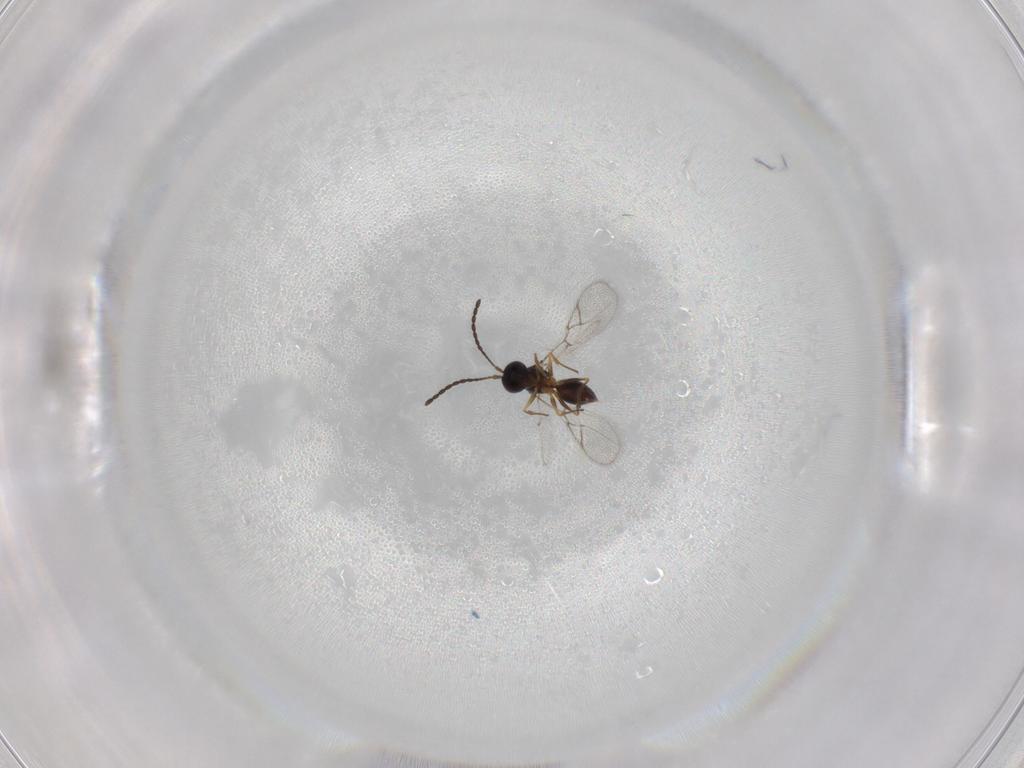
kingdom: Animalia
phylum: Arthropoda
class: Insecta
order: Hymenoptera
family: Figitidae
